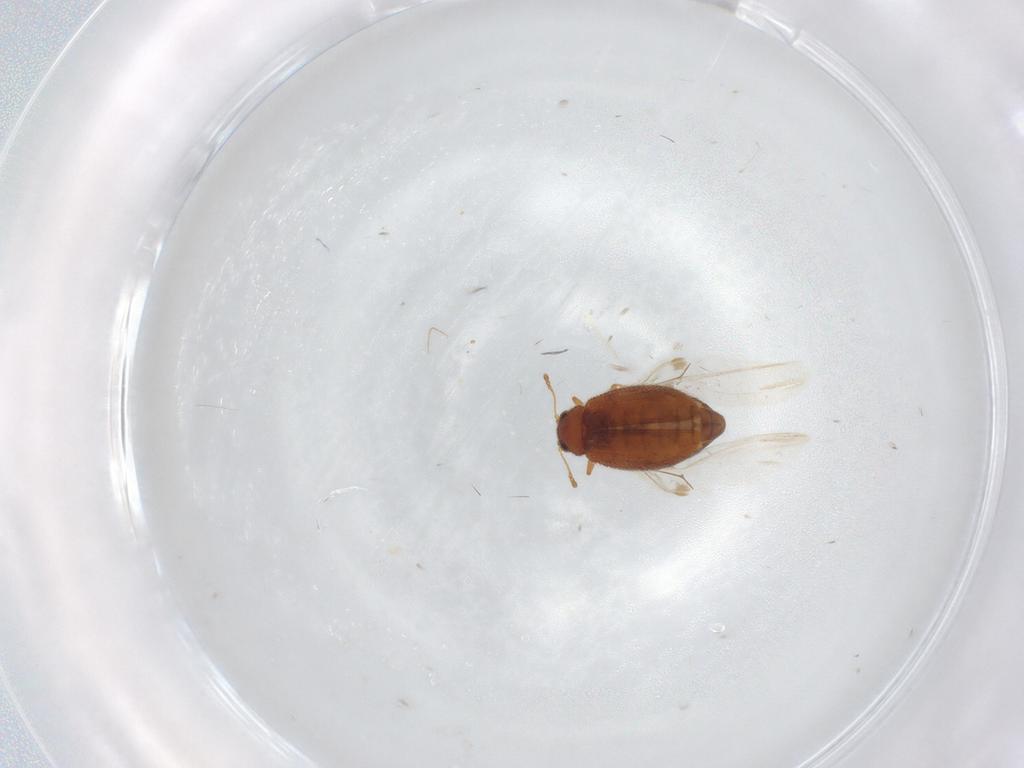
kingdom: Animalia
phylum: Arthropoda
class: Insecta
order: Coleoptera
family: Latridiidae
